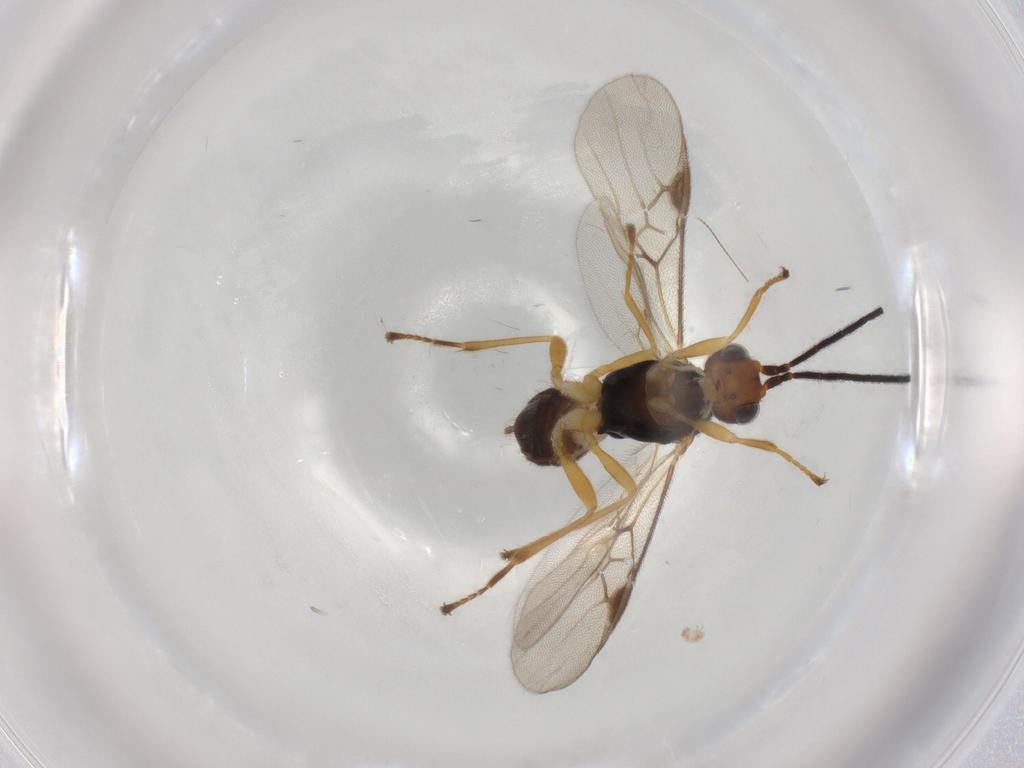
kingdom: Animalia
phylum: Arthropoda
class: Insecta
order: Hymenoptera
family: Braconidae
